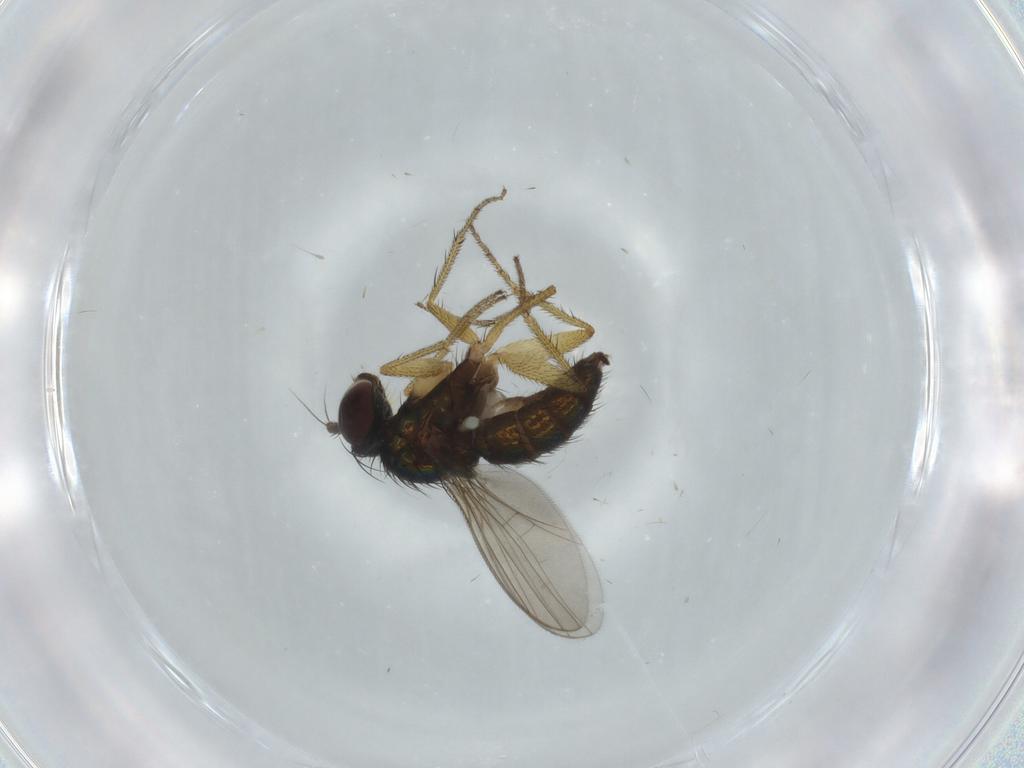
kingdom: Animalia
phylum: Arthropoda
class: Insecta
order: Diptera
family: Dolichopodidae
